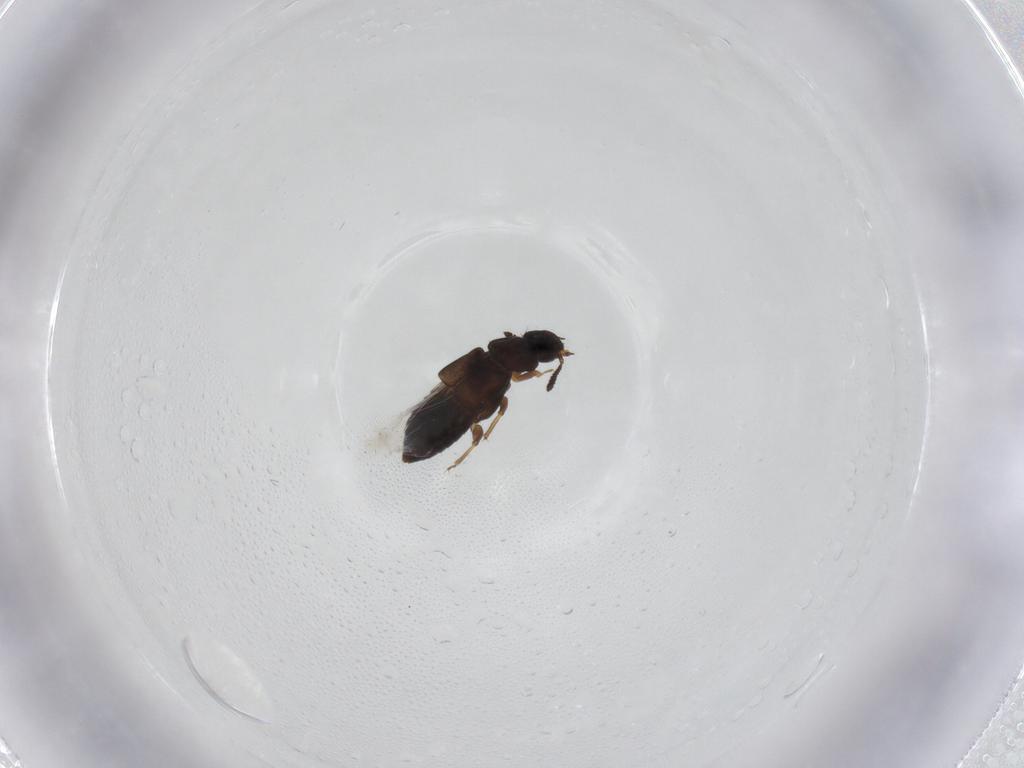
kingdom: Animalia
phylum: Arthropoda
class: Insecta
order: Coleoptera
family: Staphylinidae
